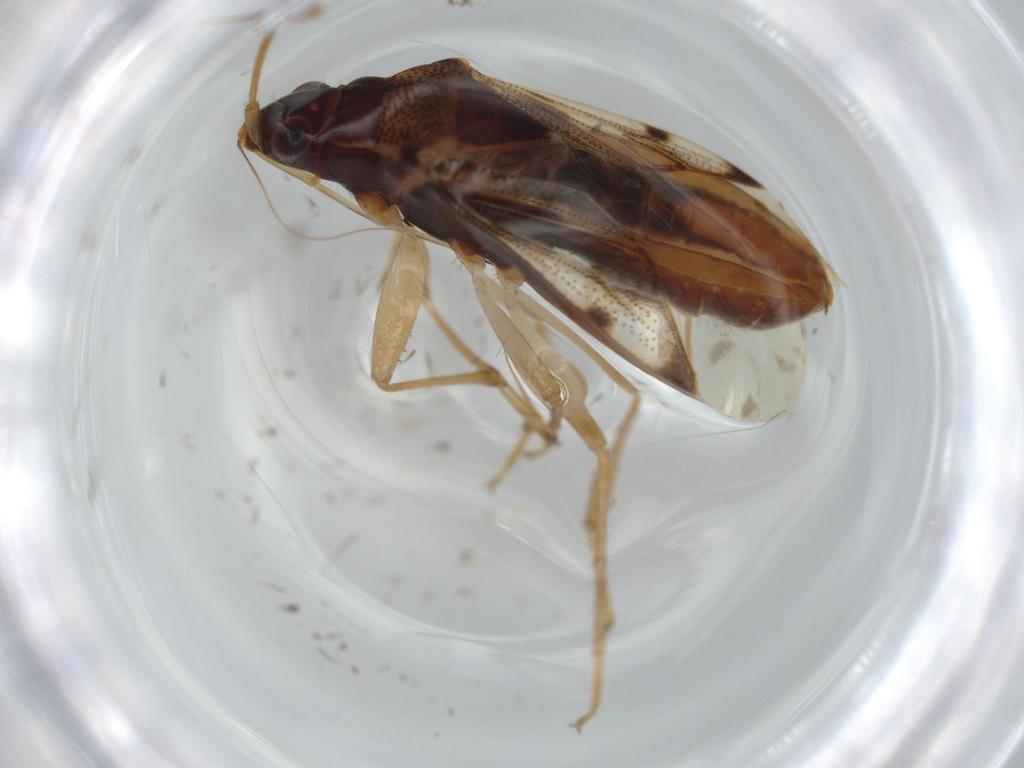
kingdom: Animalia
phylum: Arthropoda
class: Insecta
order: Hemiptera
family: Rhyparochromidae
